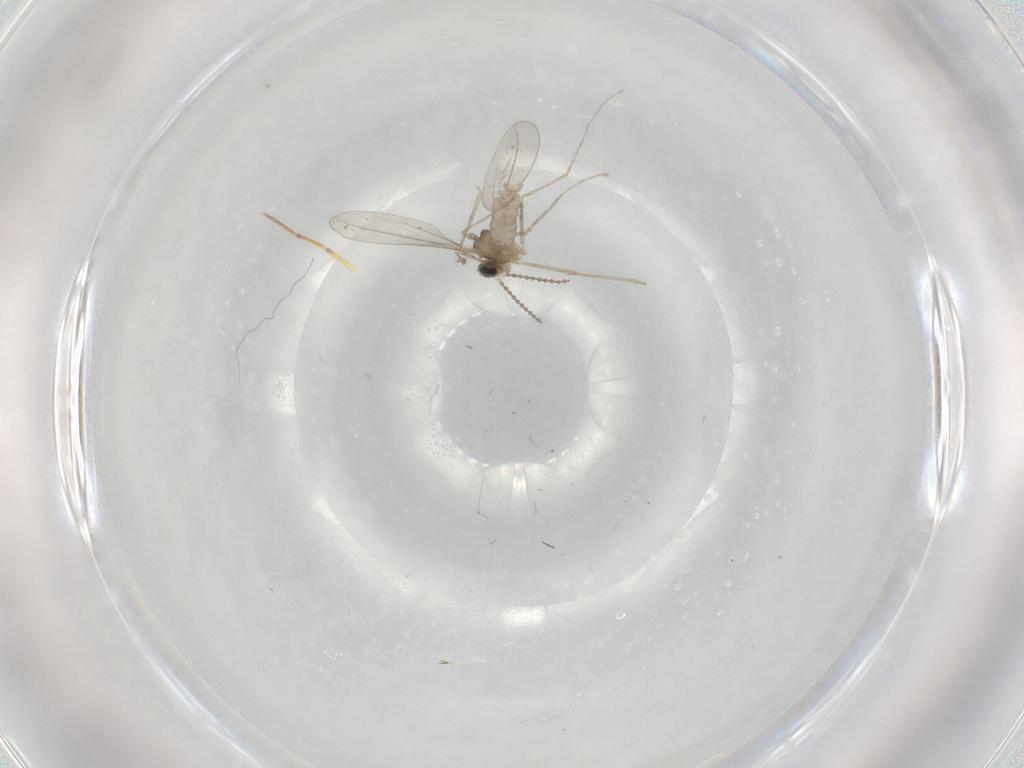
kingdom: Animalia
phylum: Arthropoda
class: Insecta
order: Diptera
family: Cecidomyiidae
